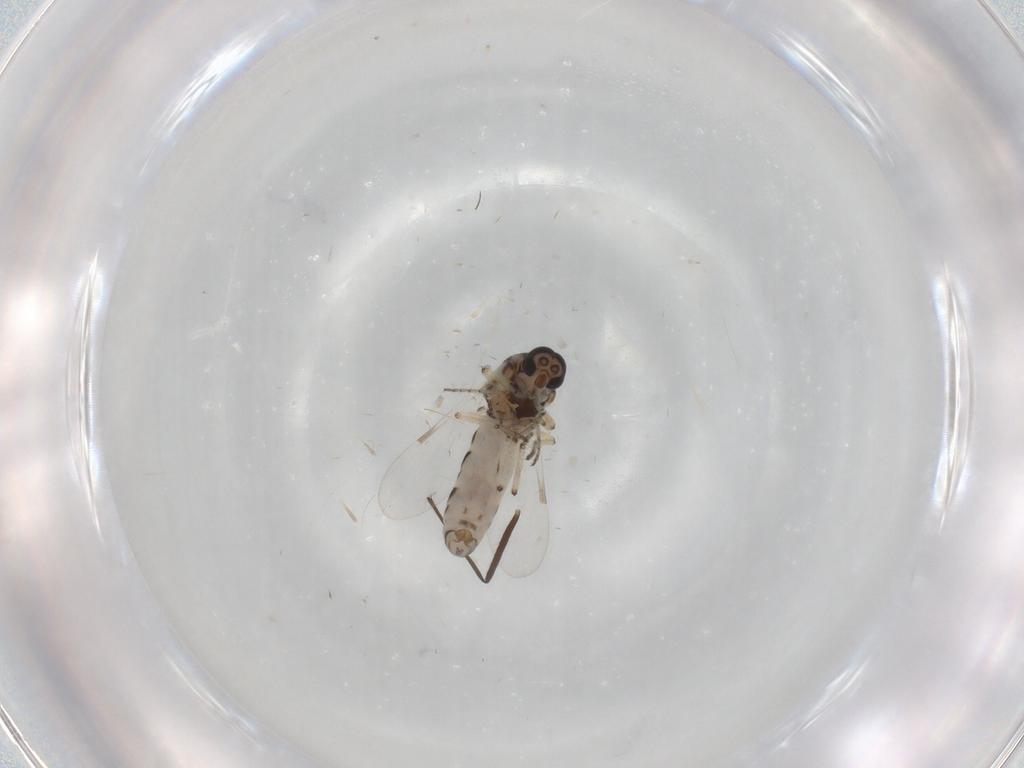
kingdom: Animalia
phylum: Arthropoda
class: Insecta
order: Diptera
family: Ceratopogonidae
